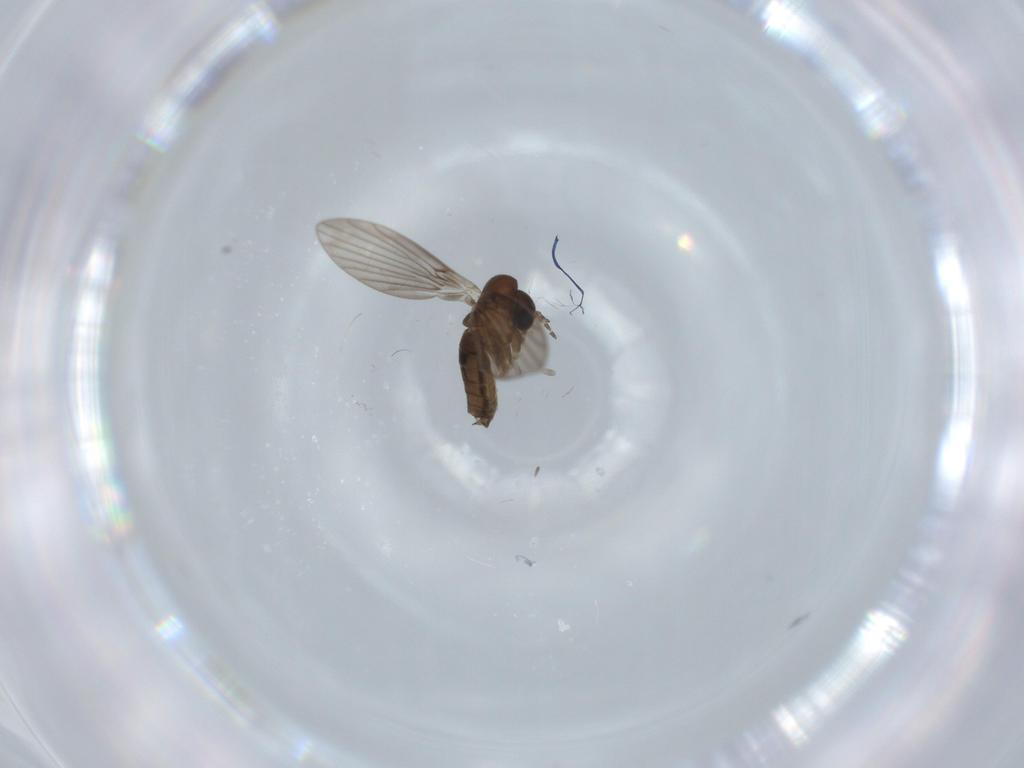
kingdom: Animalia
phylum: Arthropoda
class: Insecta
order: Diptera
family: Psychodidae
